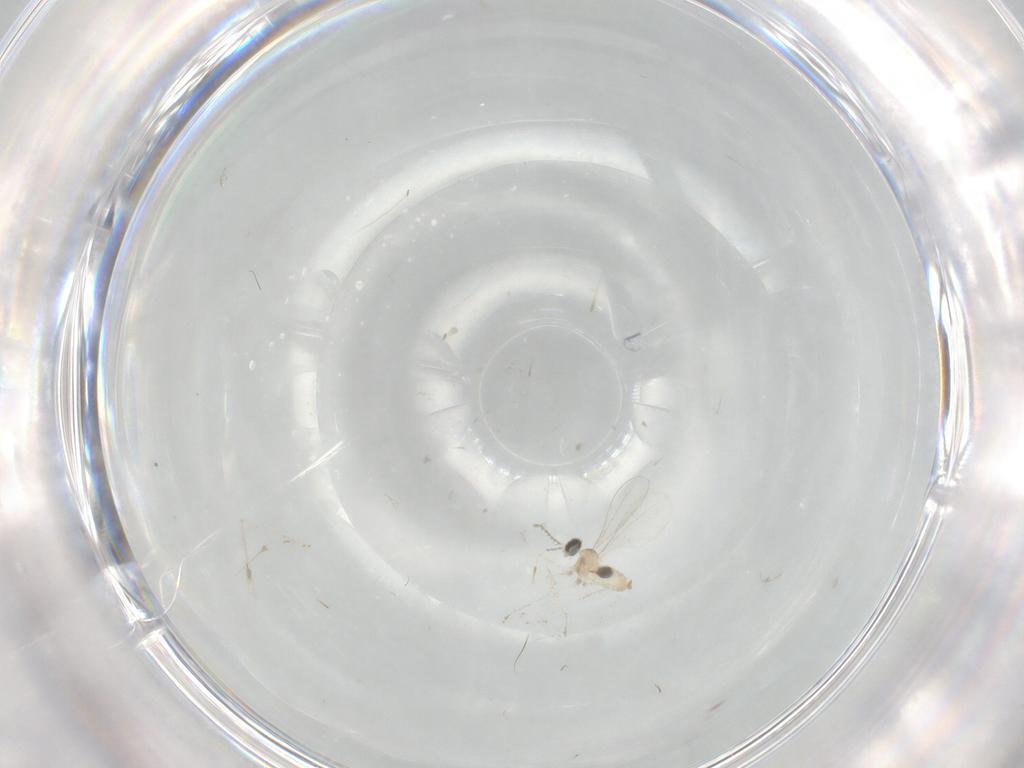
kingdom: Animalia
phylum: Arthropoda
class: Insecta
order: Diptera
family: Cecidomyiidae
